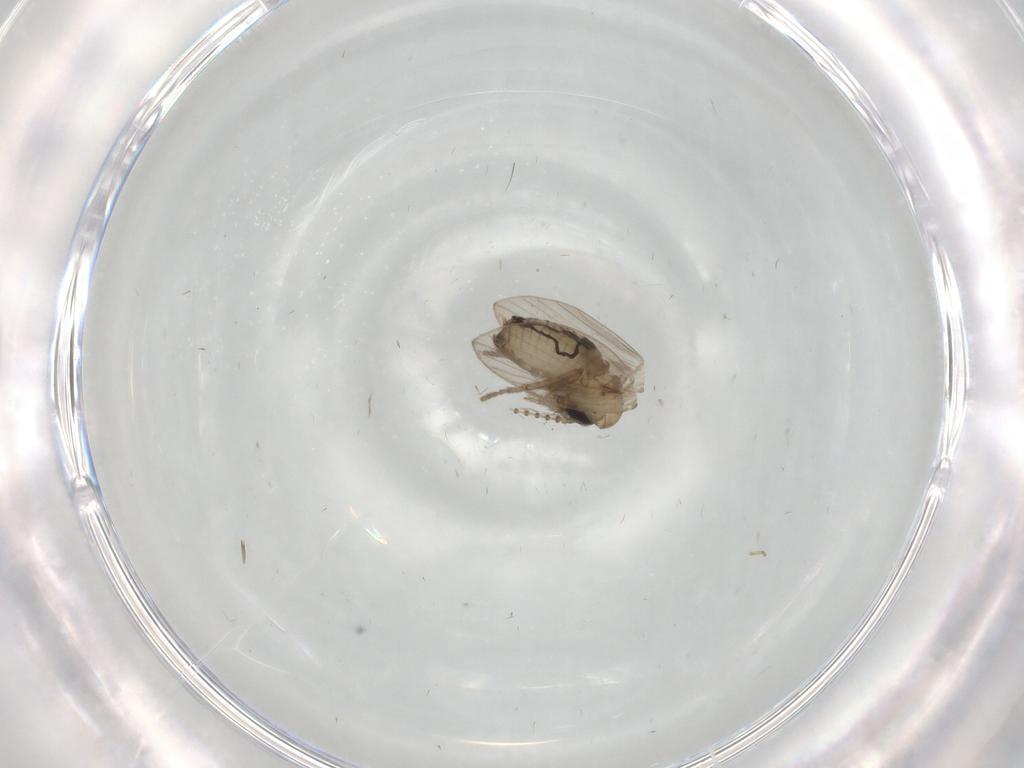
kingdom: Animalia
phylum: Arthropoda
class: Insecta
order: Diptera
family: Psychodidae
